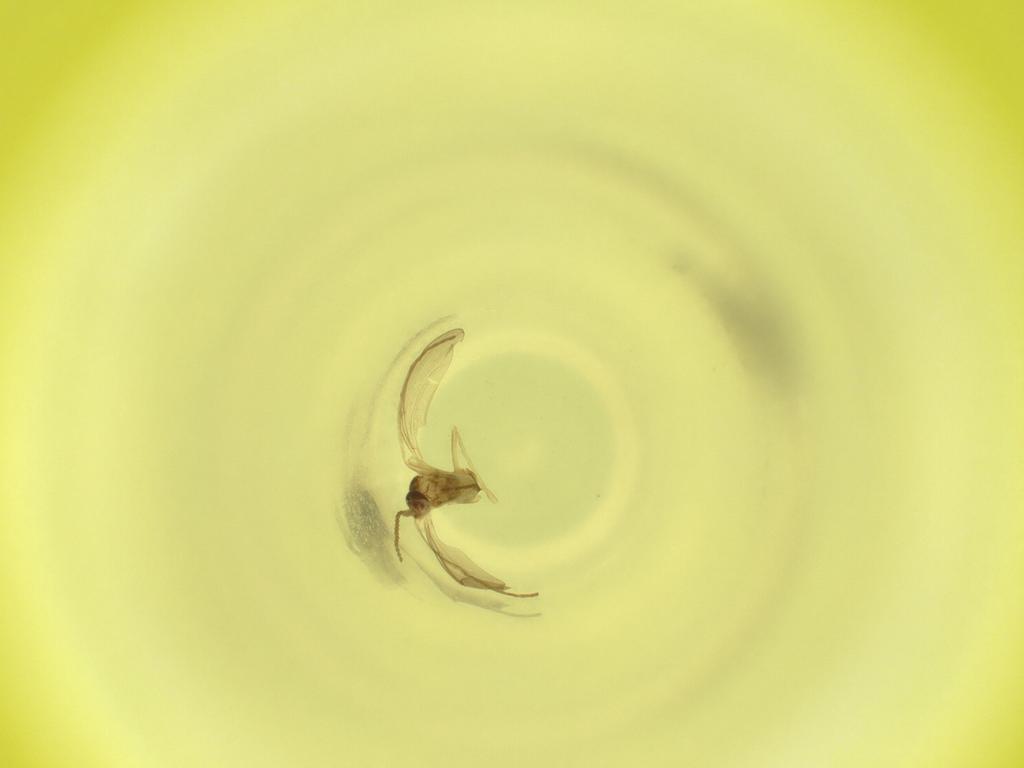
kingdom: Animalia
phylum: Arthropoda
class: Insecta
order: Diptera
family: Cecidomyiidae
